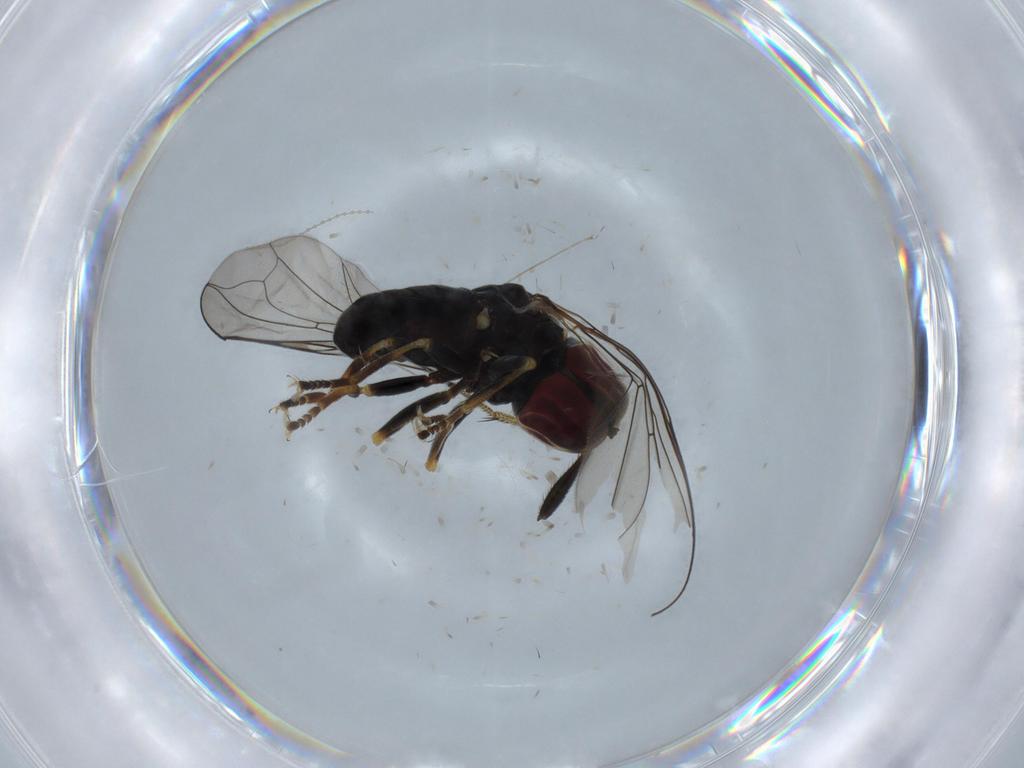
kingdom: Animalia
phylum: Arthropoda
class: Insecta
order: Diptera
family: Pipunculidae
